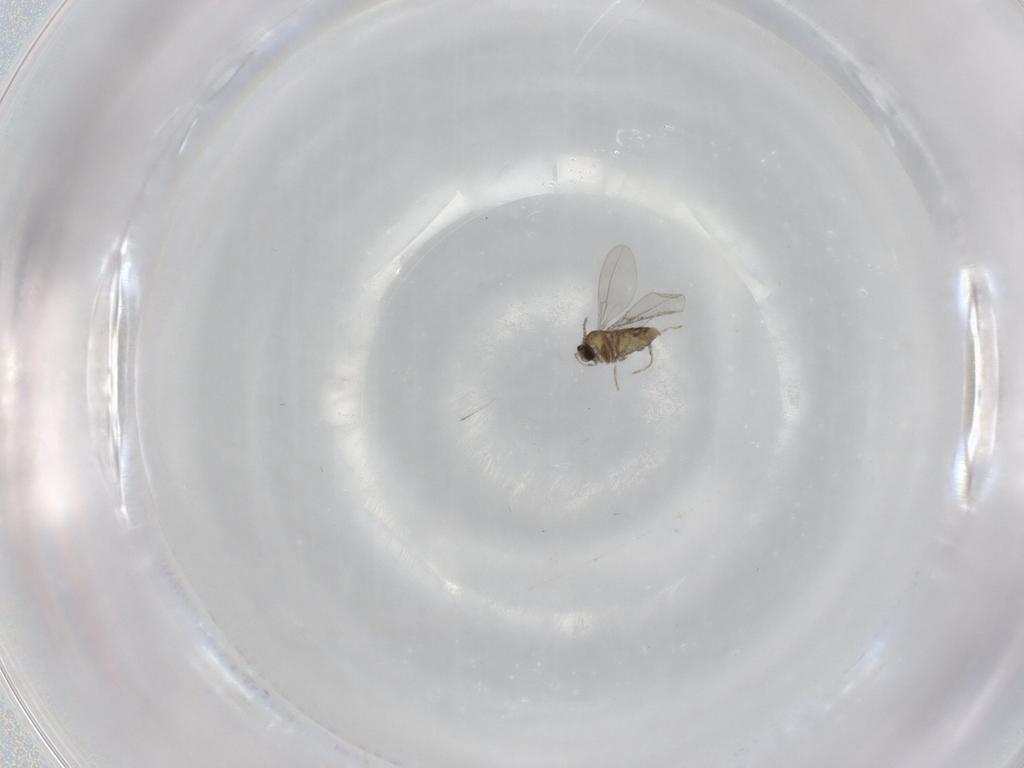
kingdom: Animalia
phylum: Arthropoda
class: Insecta
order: Diptera
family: Cecidomyiidae
